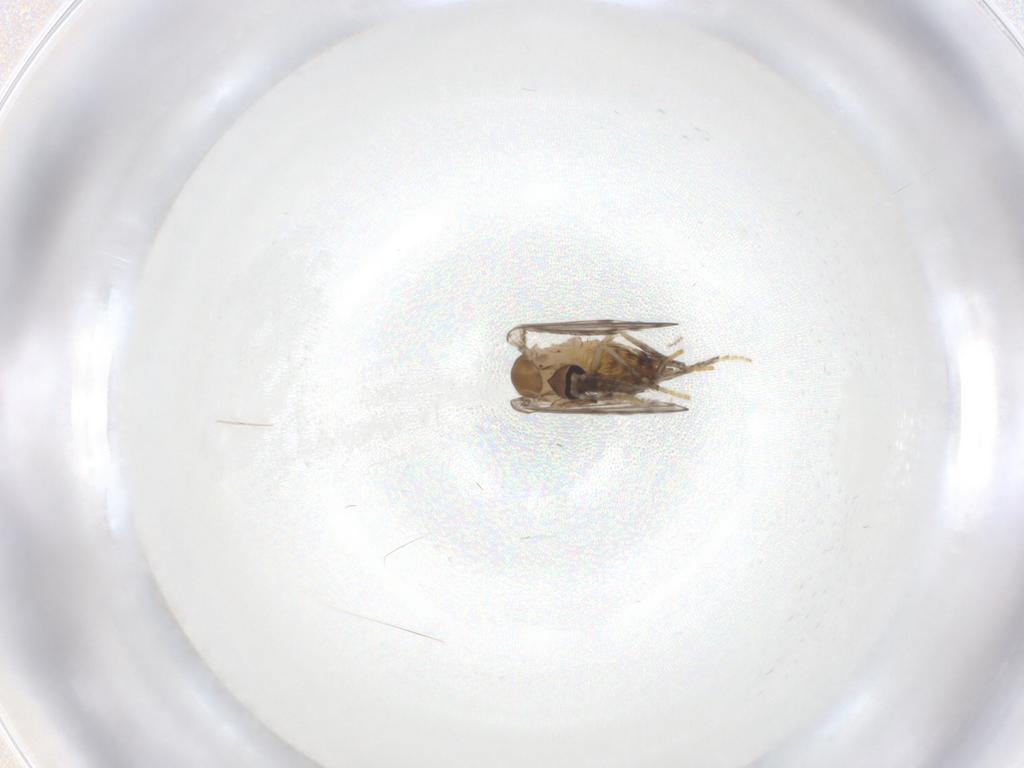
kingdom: Animalia
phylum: Arthropoda
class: Insecta
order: Diptera
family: Psychodidae
